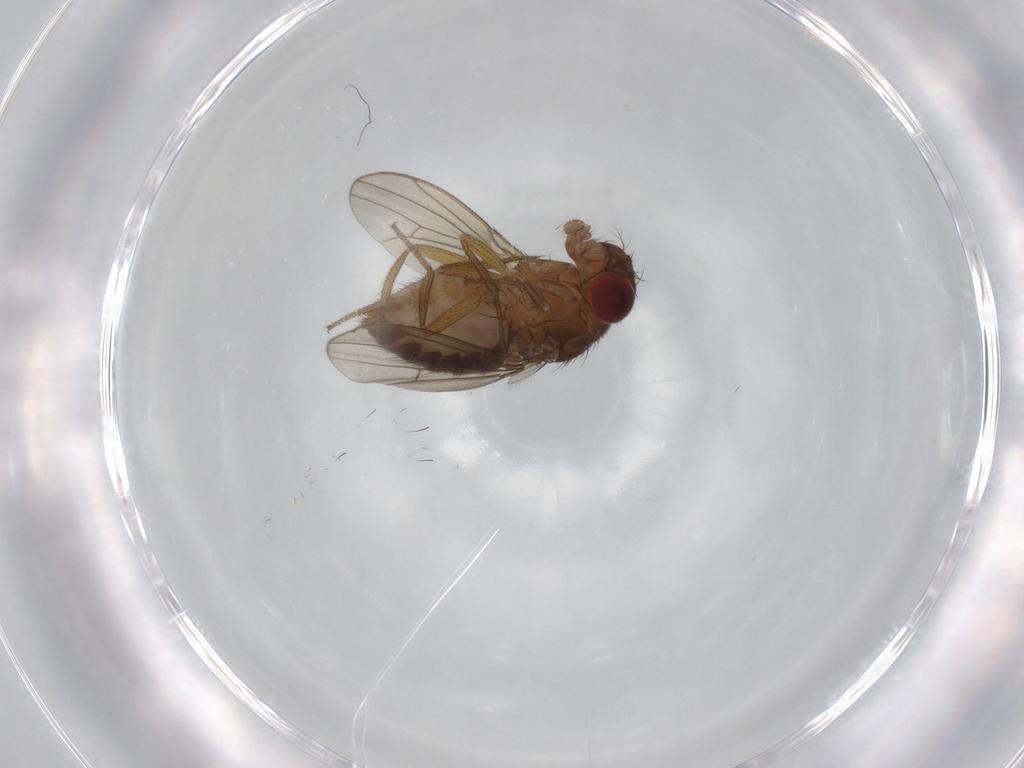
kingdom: Animalia
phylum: Arthropoda
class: Insecta
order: Diptera
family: Drosophilidae
